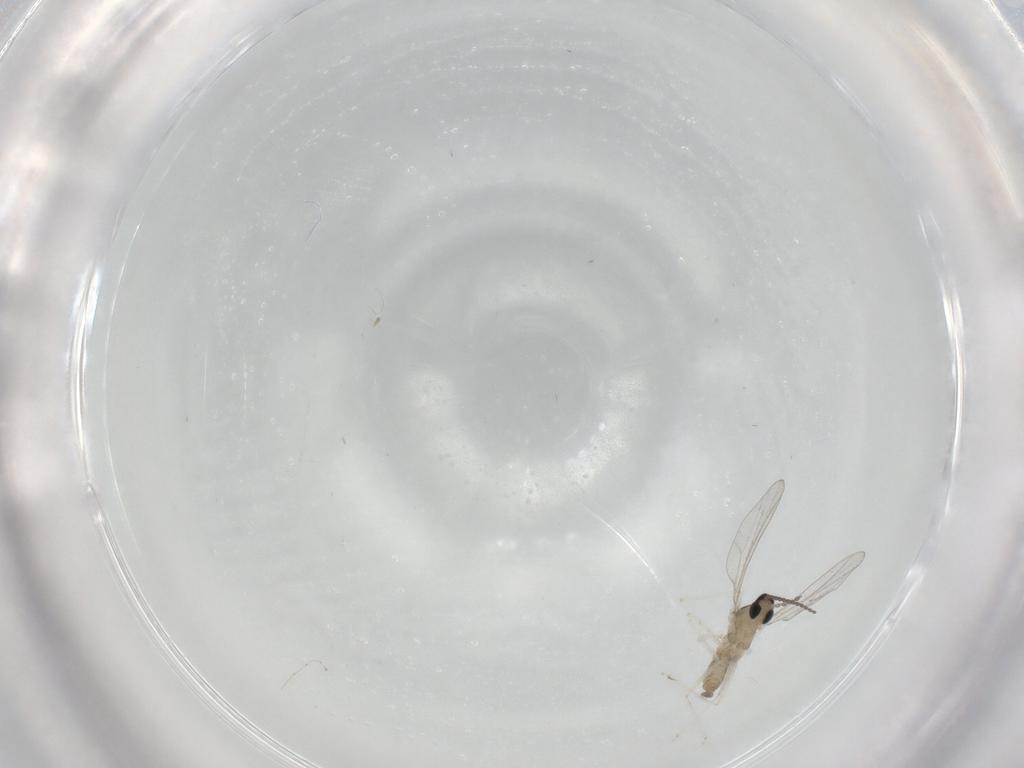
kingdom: Animalia
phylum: Arthropoda
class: Insecta
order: Diptera
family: Cecidomyiidae
